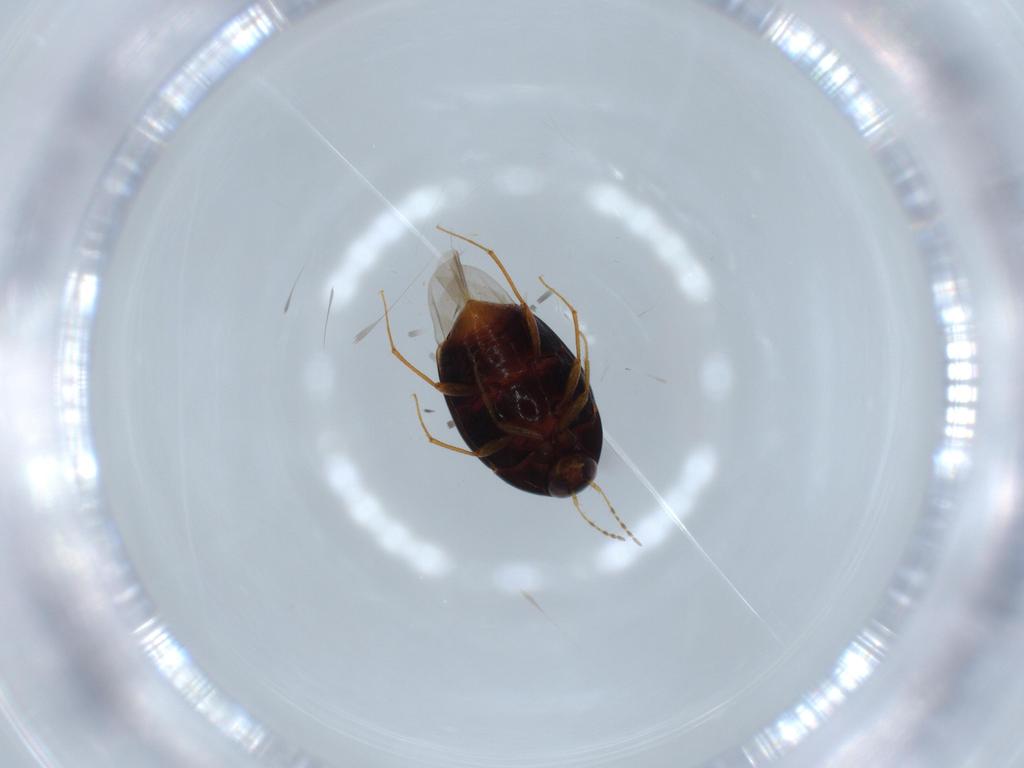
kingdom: Animalia
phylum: Arthropoda
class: Insecta
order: Coleoptera
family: Staphylinidae
